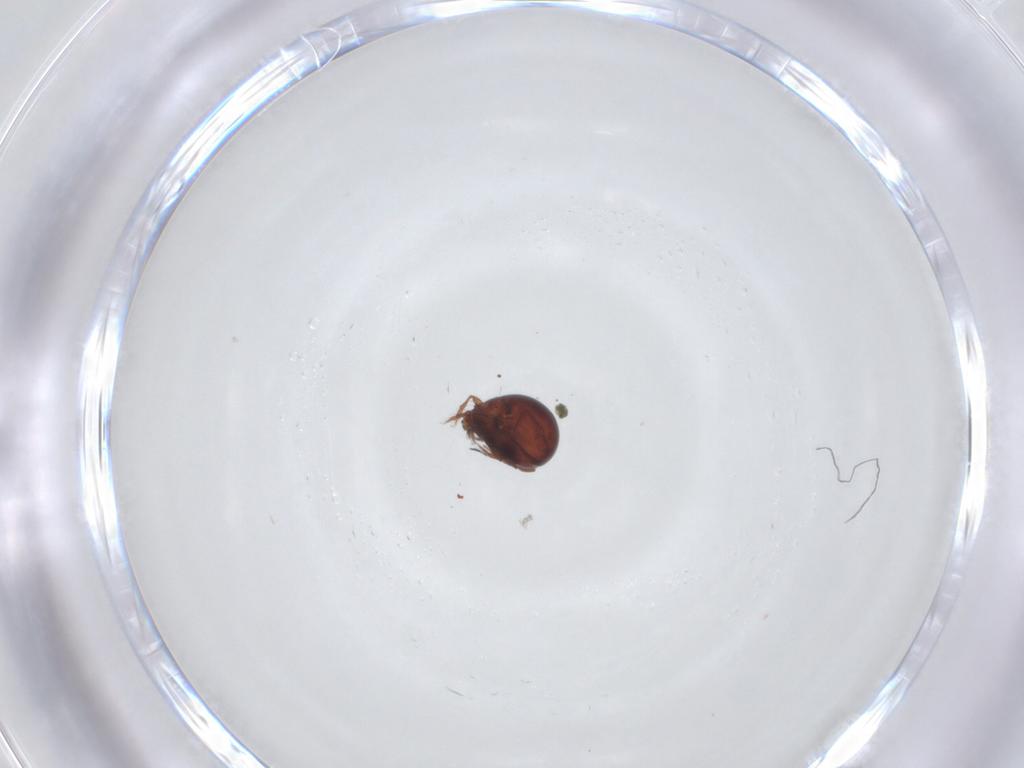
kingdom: Animalia
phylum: Arthropoda
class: Arachnida
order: Sarcoptiformes
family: Mochlozetidae
